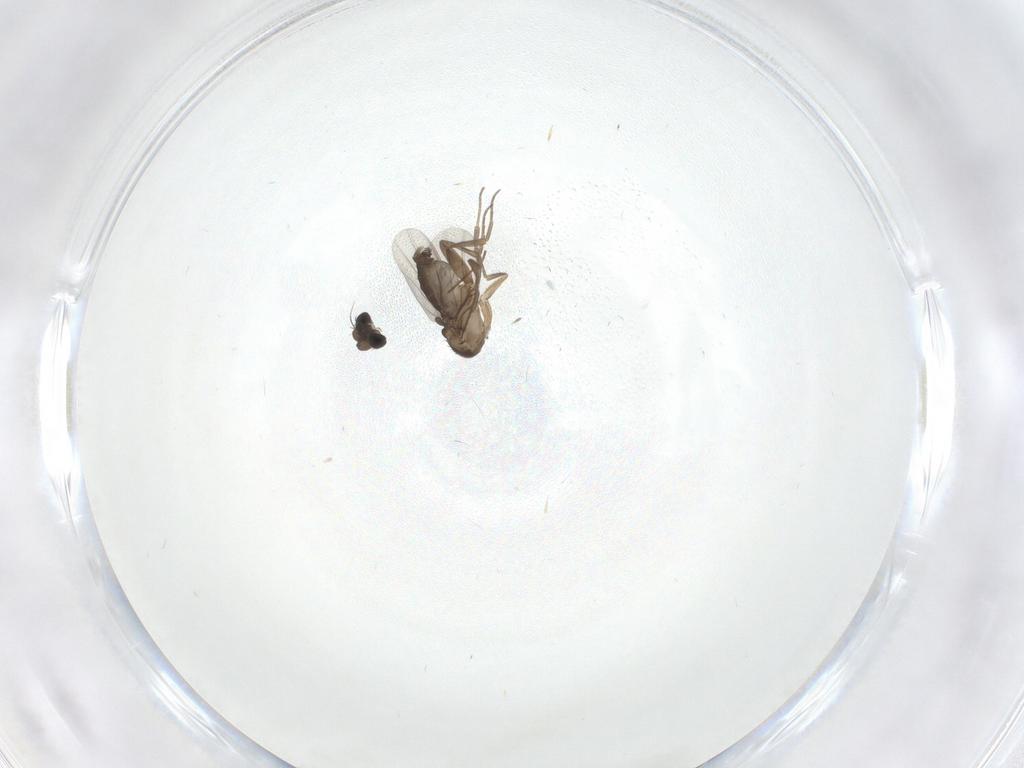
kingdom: Animalia
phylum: Arthropoda
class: Insecta
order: Diptera
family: Phoridae
